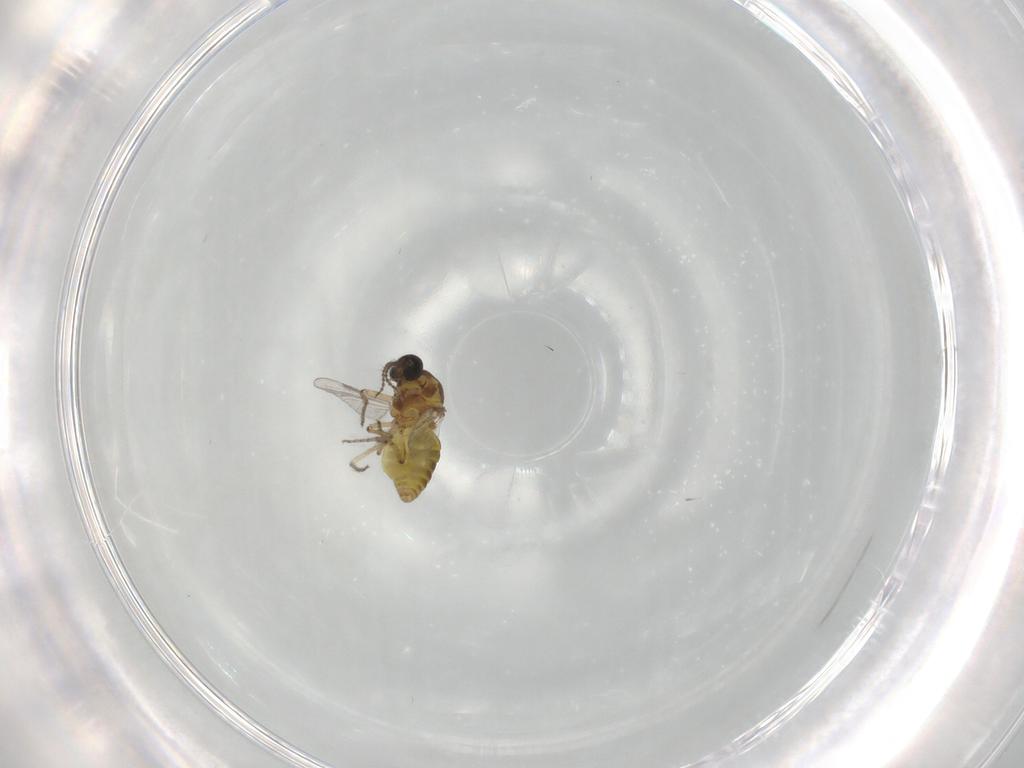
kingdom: Animalia
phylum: Arthropoda
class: Insecta
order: Diptera
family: Ceratopogonidae
